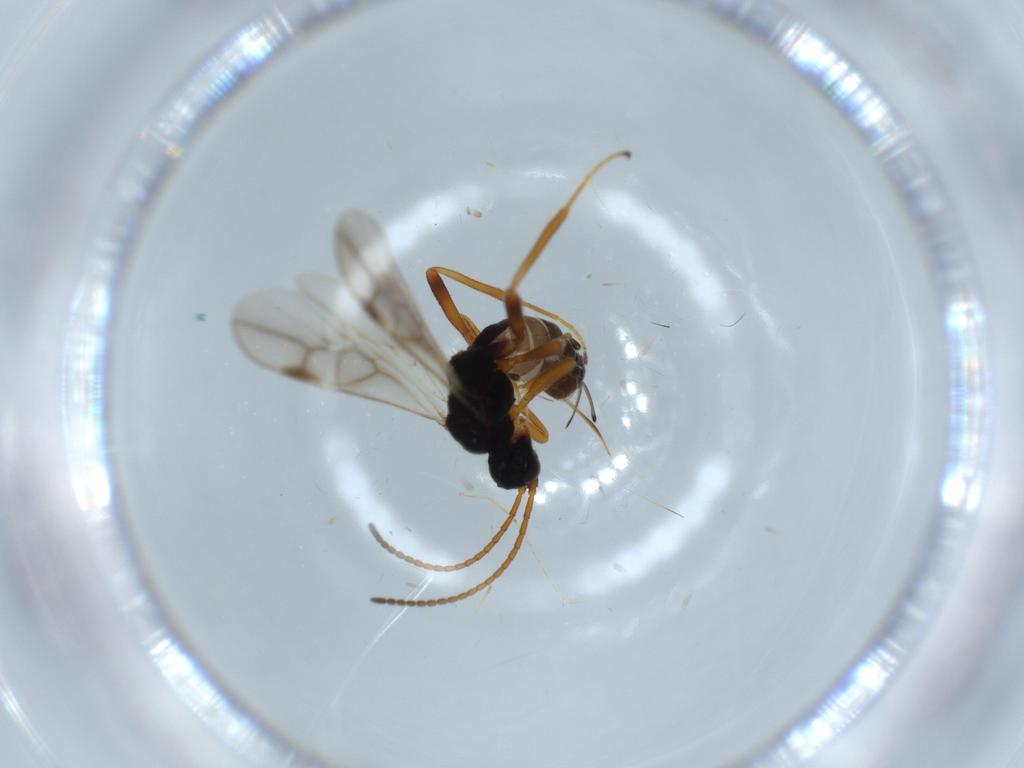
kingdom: Animalia
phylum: Arthropoda
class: Insecta
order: Hymenoptera
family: Braconidae
